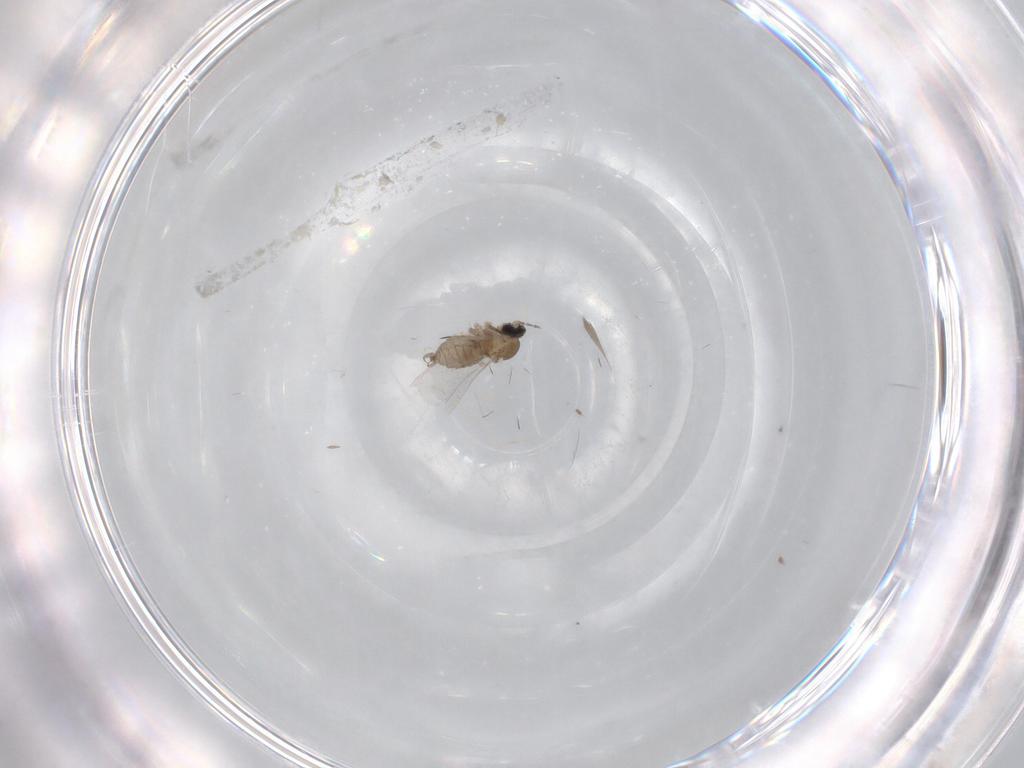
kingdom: Animalia
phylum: Arthropoda
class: Insecta
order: Diptera
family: Cecidomyiidae
